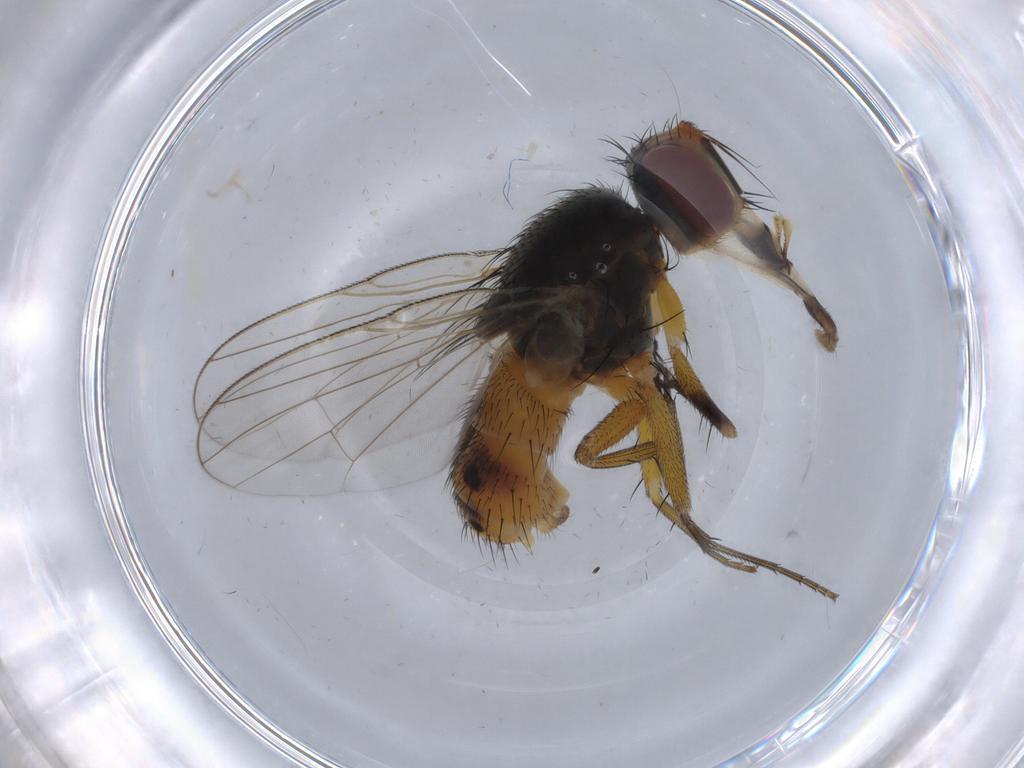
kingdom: Animalia
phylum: Arthropoda
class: Insecta
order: Diptera
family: Muscidae
